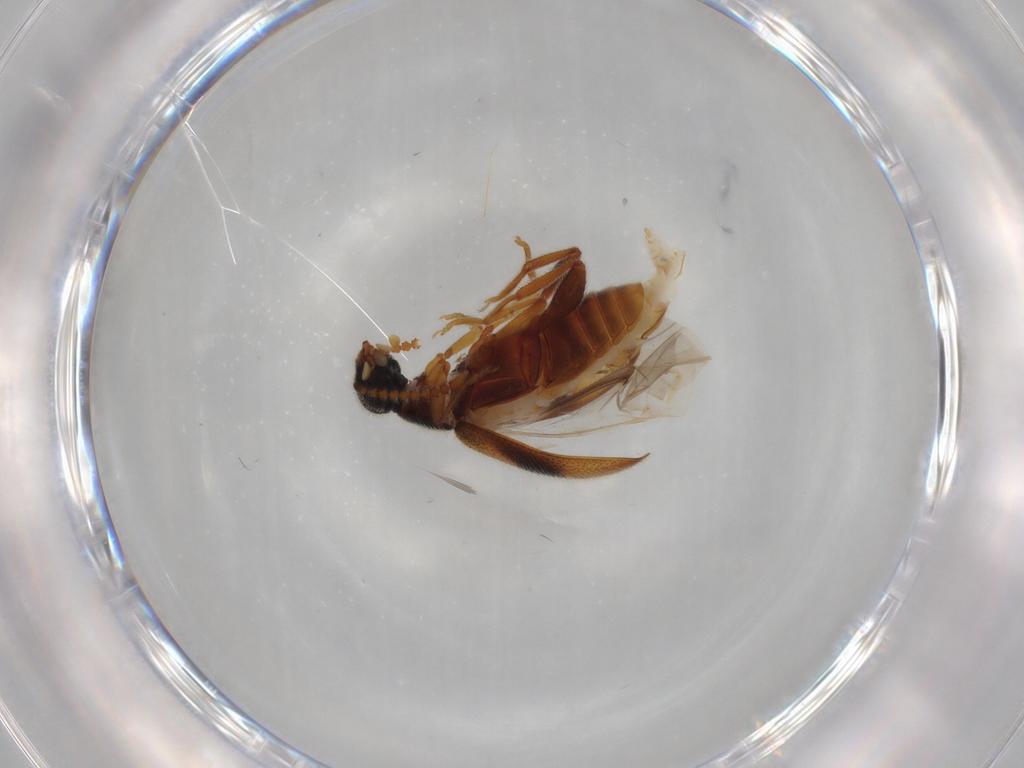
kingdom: Animalia
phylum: Arthropoda
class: Insecta
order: Coleoptera
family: Aderidae
